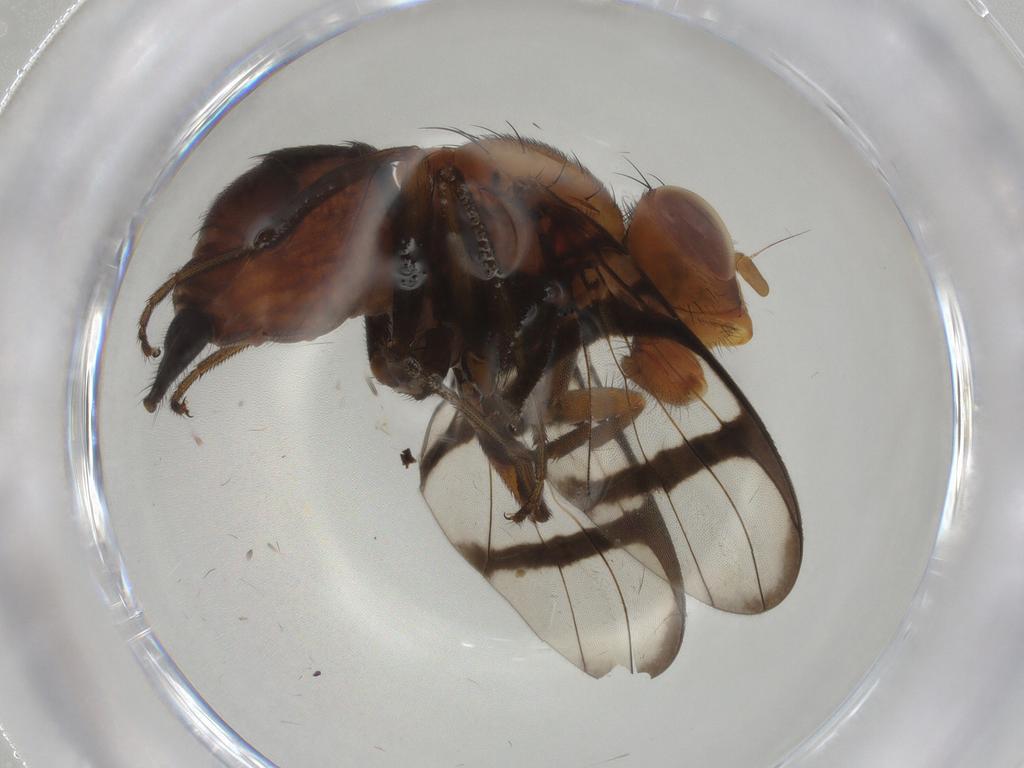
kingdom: Animalia
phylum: Arthropoda
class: Insecta
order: Diptera
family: Richardiidae
